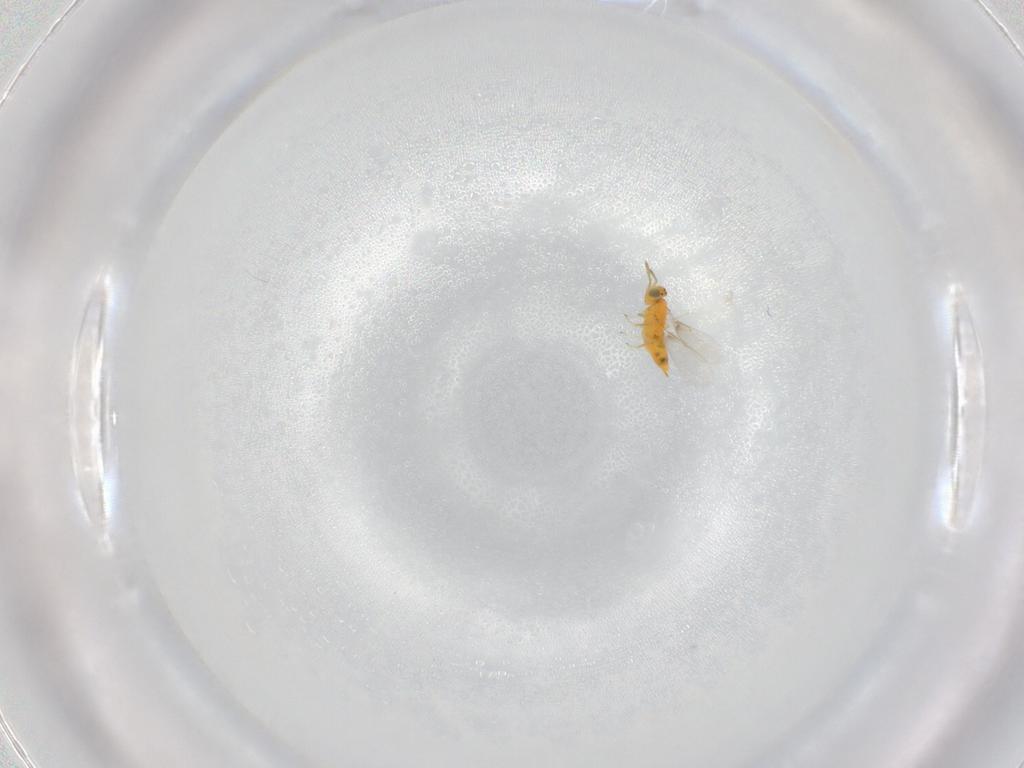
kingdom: Animalia
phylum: Arthropoda
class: Insecta
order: Hymenoptera
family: Aphelinidae
